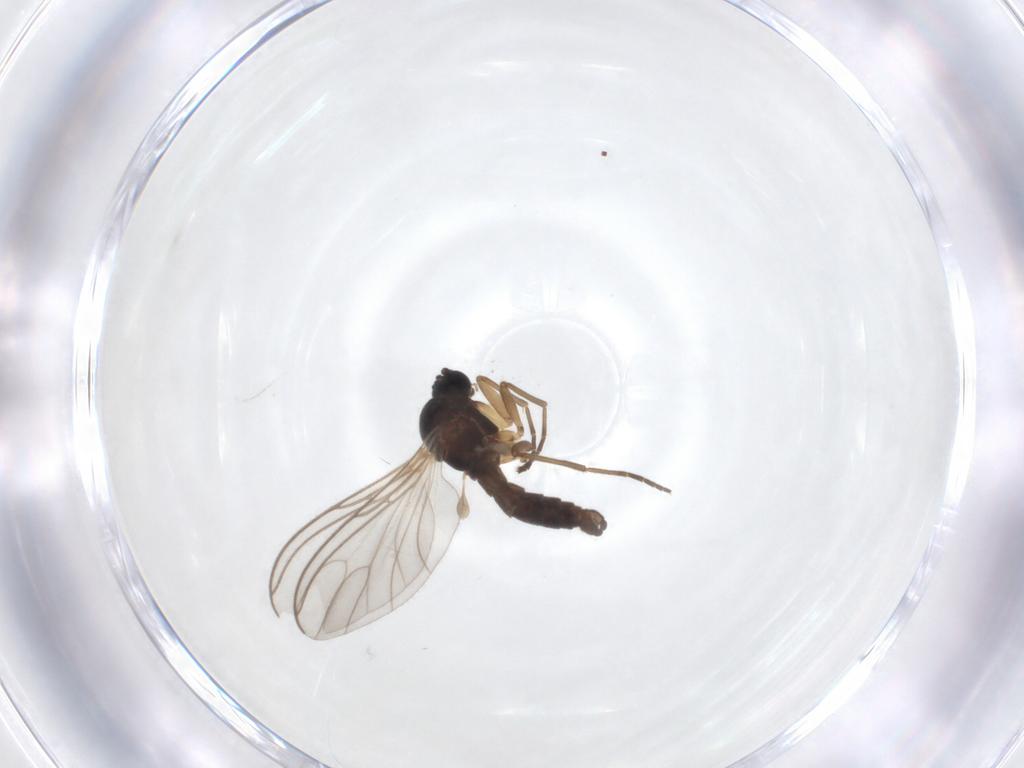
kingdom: Animalia
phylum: Arthropoda
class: Insecta
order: Diptera
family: Sciaridae
